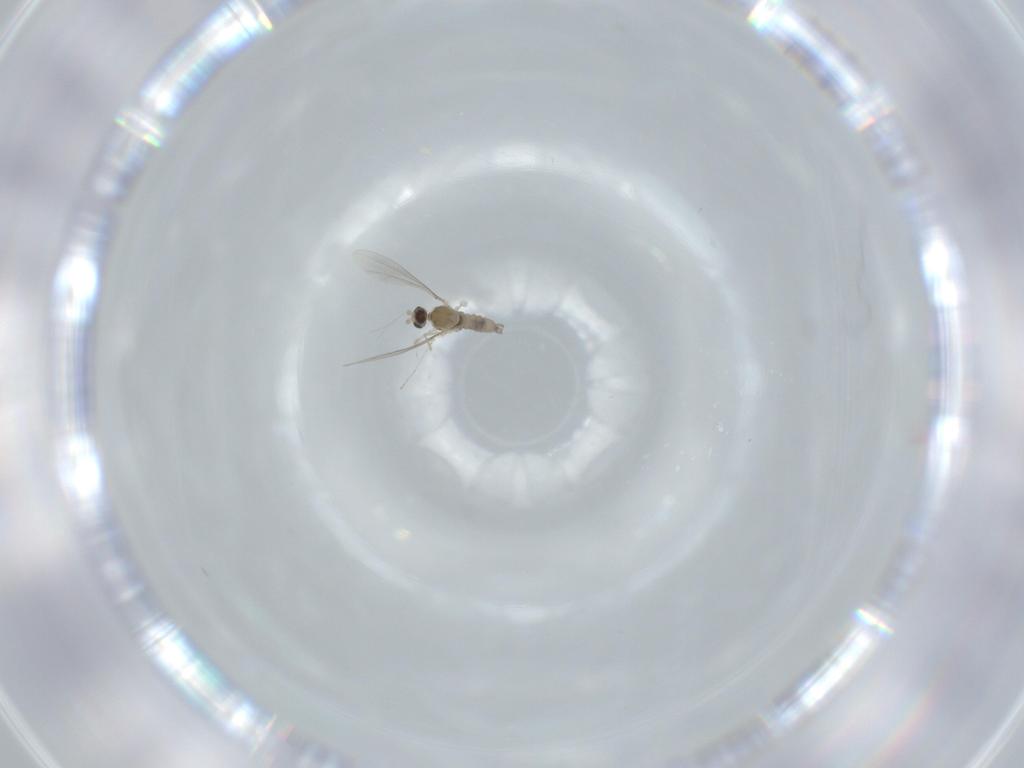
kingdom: Animalia
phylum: Arthropoda
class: Insecta
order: Diptera
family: Cecidomyiidae
